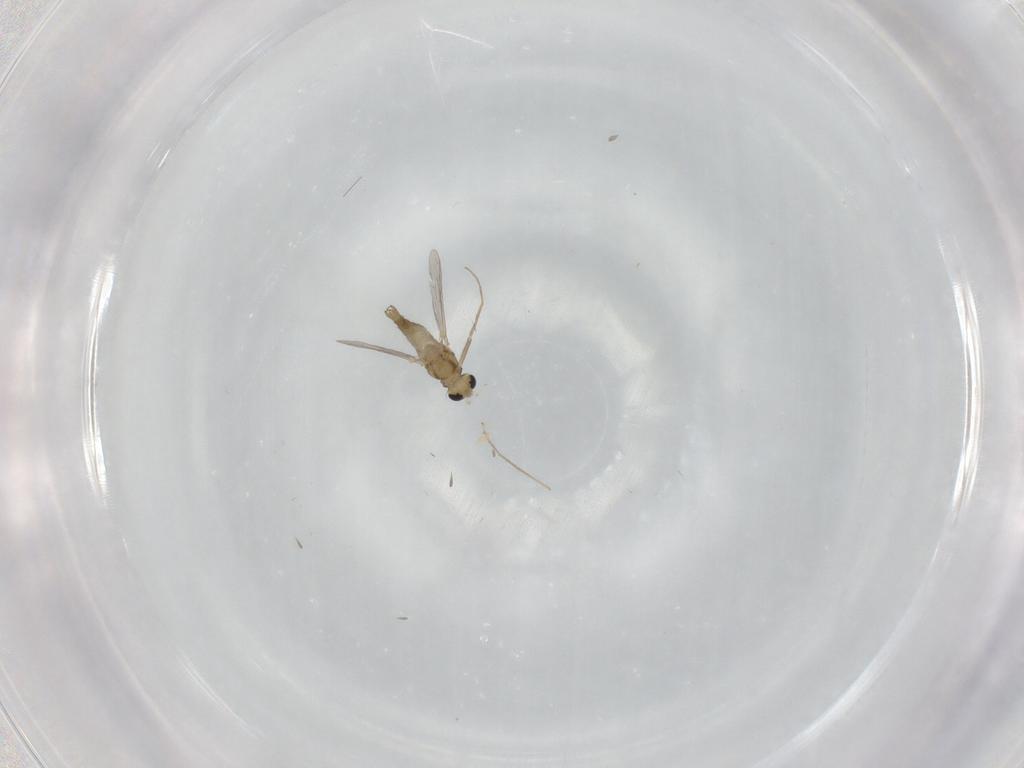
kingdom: Animalia
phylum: Arthropoda
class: Insecta
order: Diptera
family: Chironomidae
